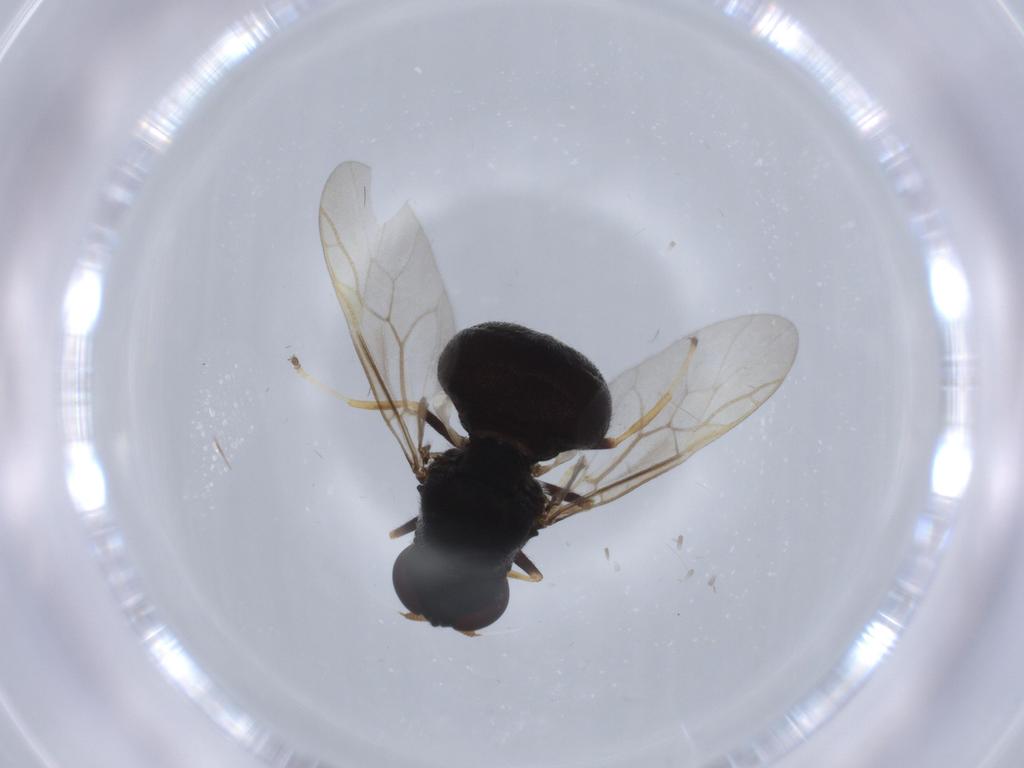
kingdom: Animalia
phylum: Arthropoda
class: Insecta
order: Diptera
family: Stratiomyidae
